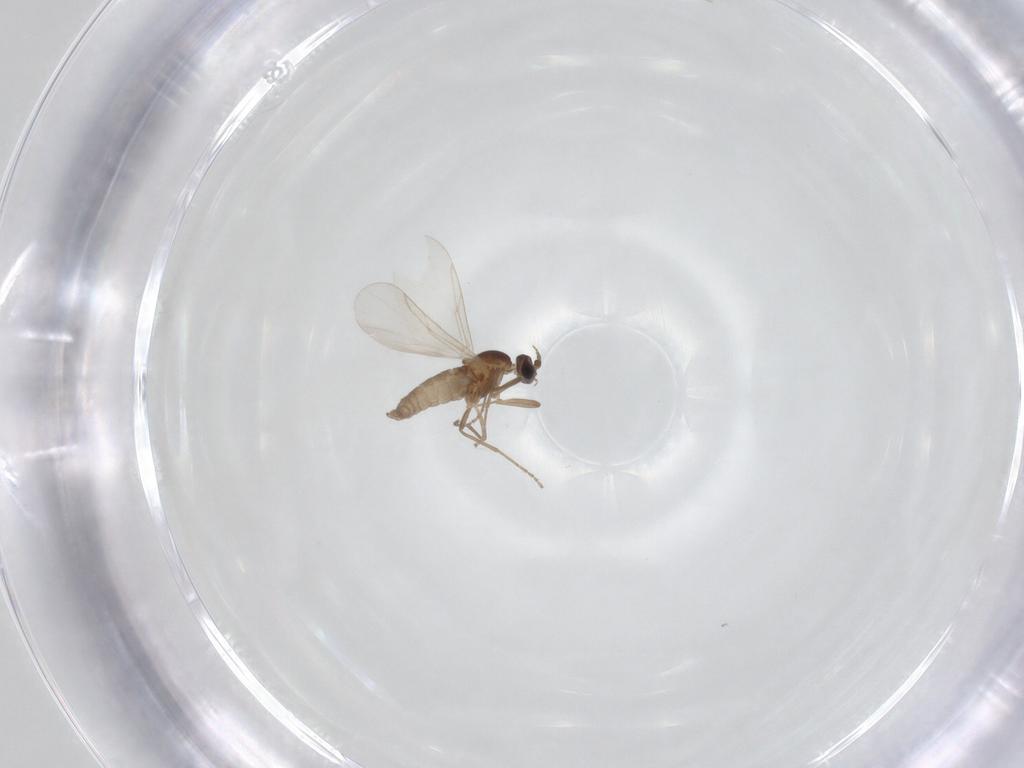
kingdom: Animalia
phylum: Arthropoda
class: Insecta
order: Diptera
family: Cecidomyiidae
